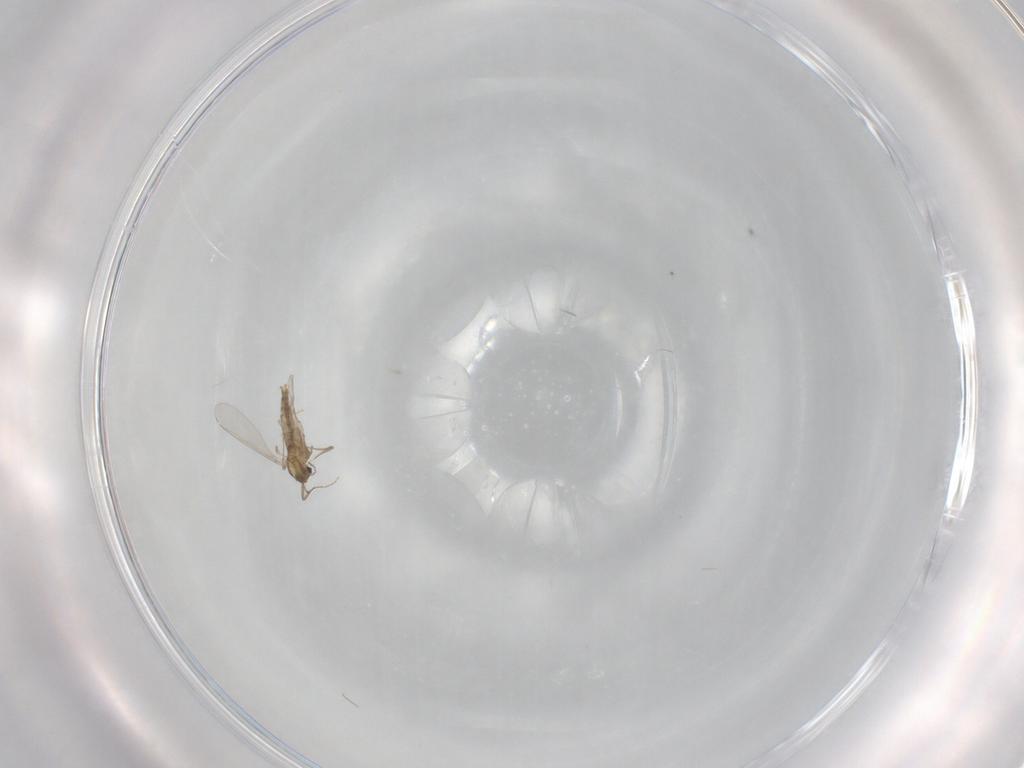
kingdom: Animalia
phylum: Arthropoda
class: Insecta
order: Diptera
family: Chironomidae
